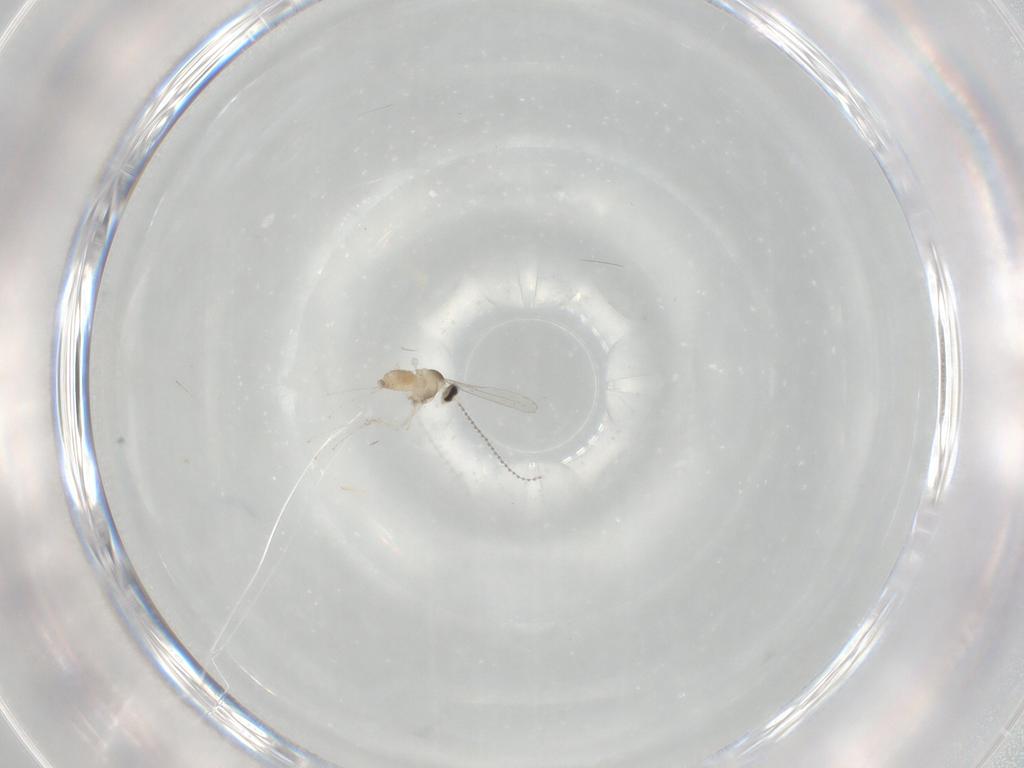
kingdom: Animalia
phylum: Arthropoda
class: Insecta
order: Diptera
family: Cecidomyiidae
